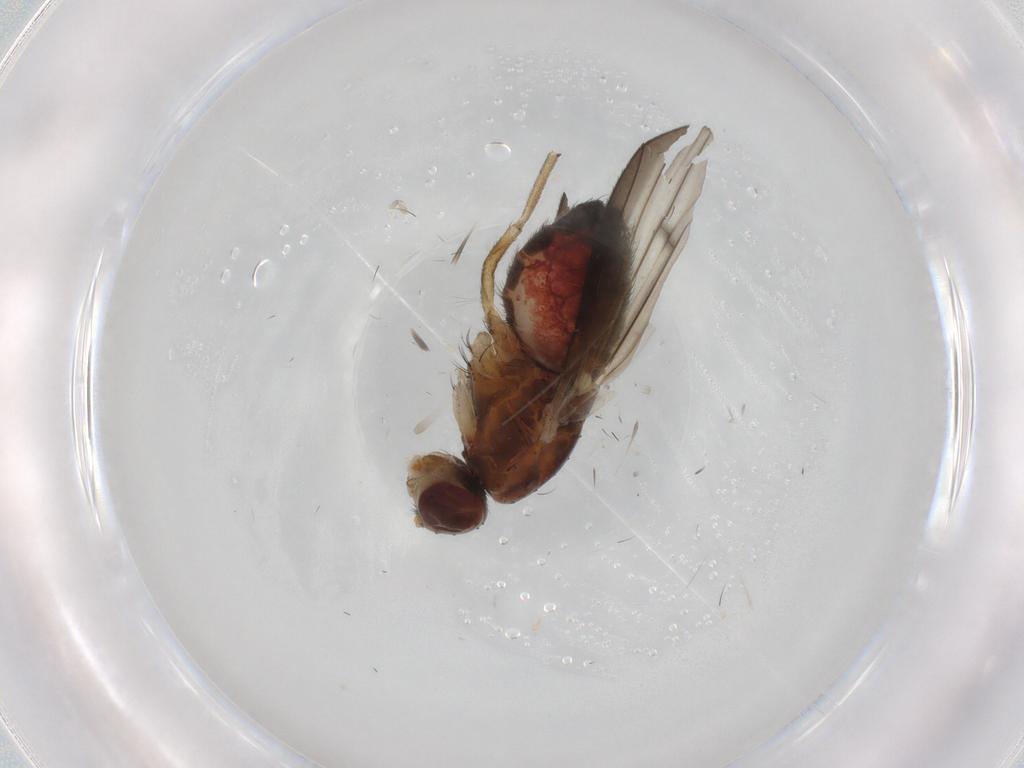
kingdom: Animalia
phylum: Arthropoda
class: Insecta
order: Diptera
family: Heleomyzidae
